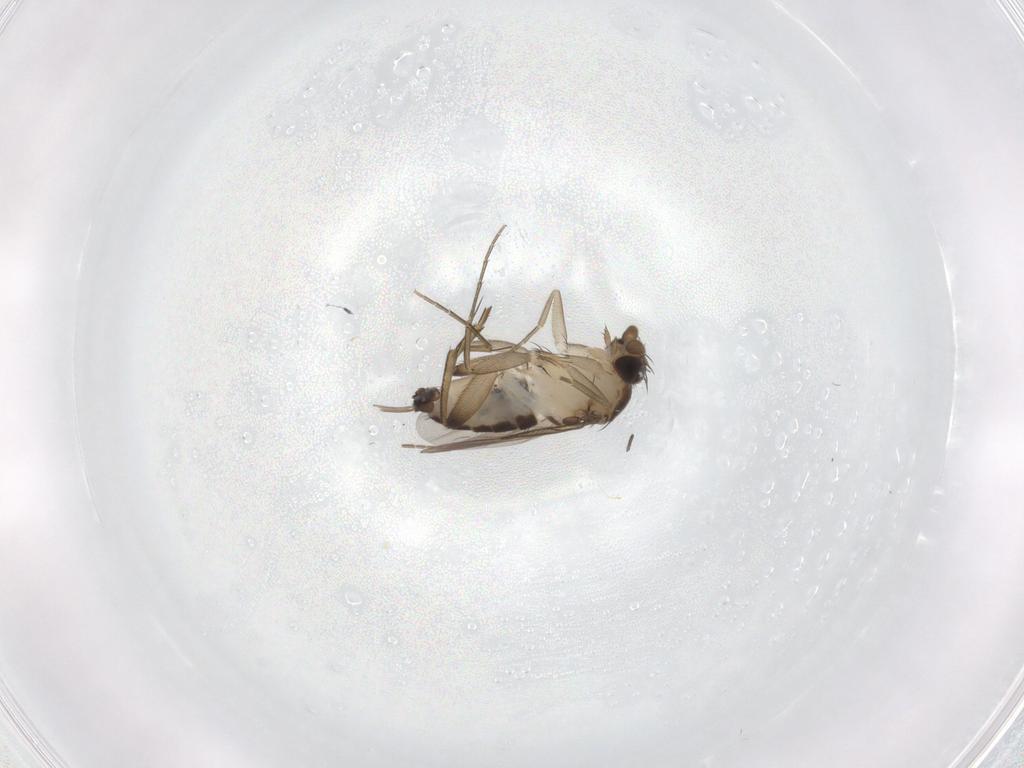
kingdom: Animalia
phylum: Arthropoda
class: Insecta
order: Diptera
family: Phoridae
